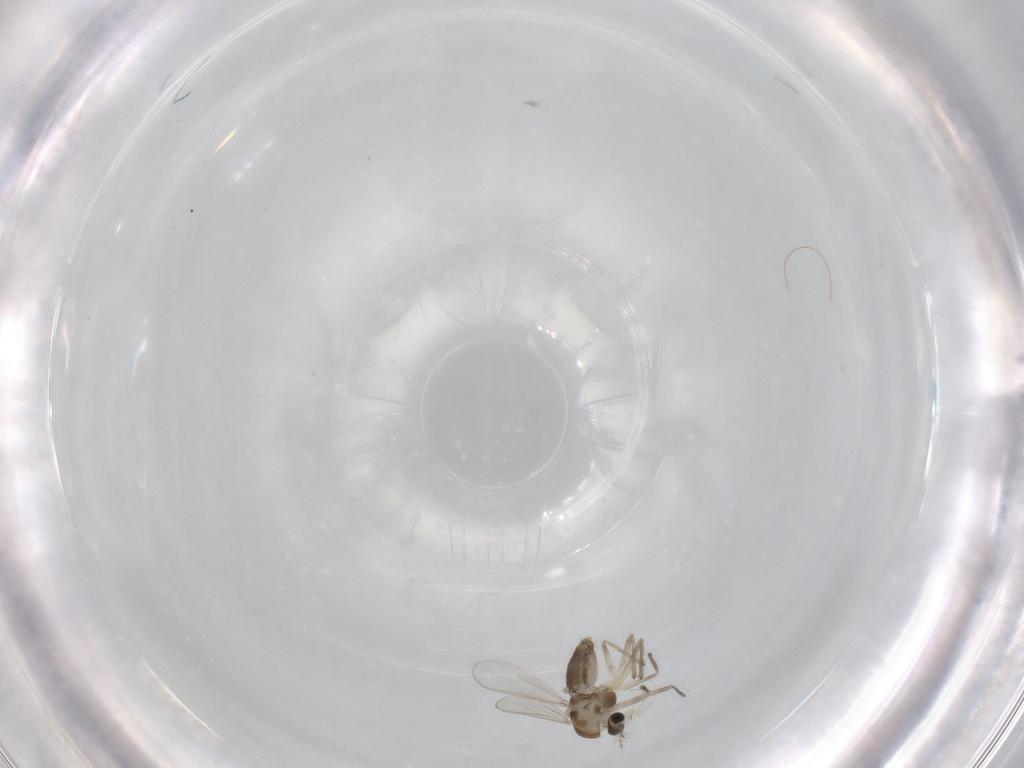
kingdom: Animalia
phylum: Arthropoda
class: Insecta
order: Diptera
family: Chironomidae
